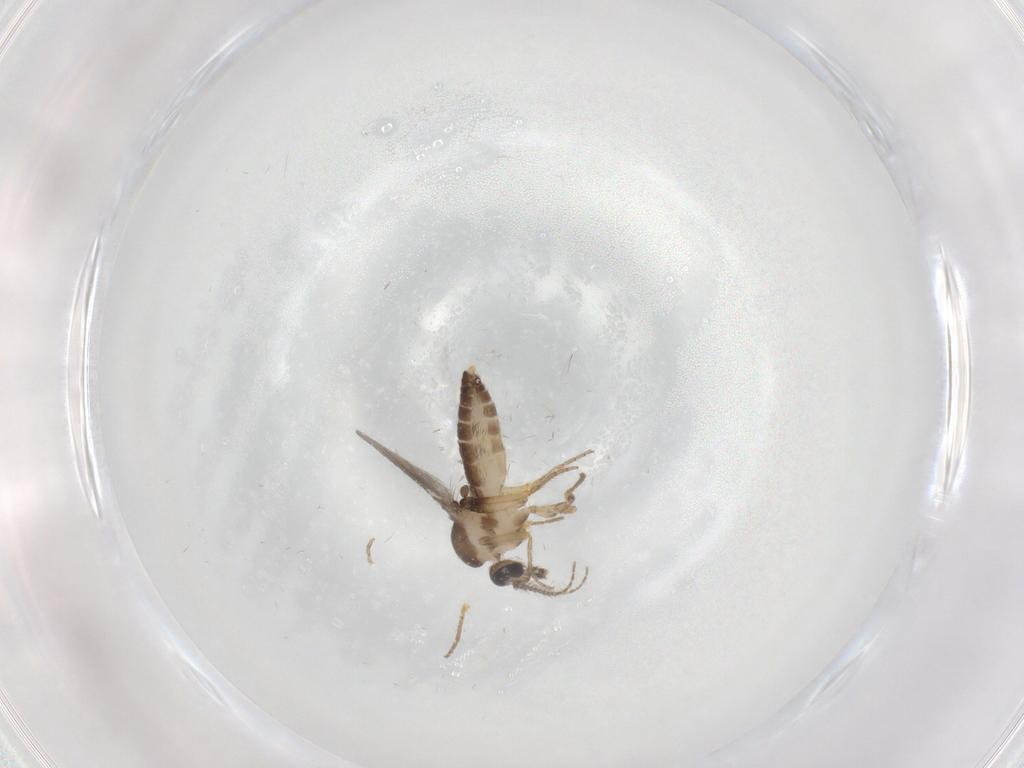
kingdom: Animalia
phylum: Arthropoda
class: Insecta
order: Diptera
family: Ceratopogonidae
